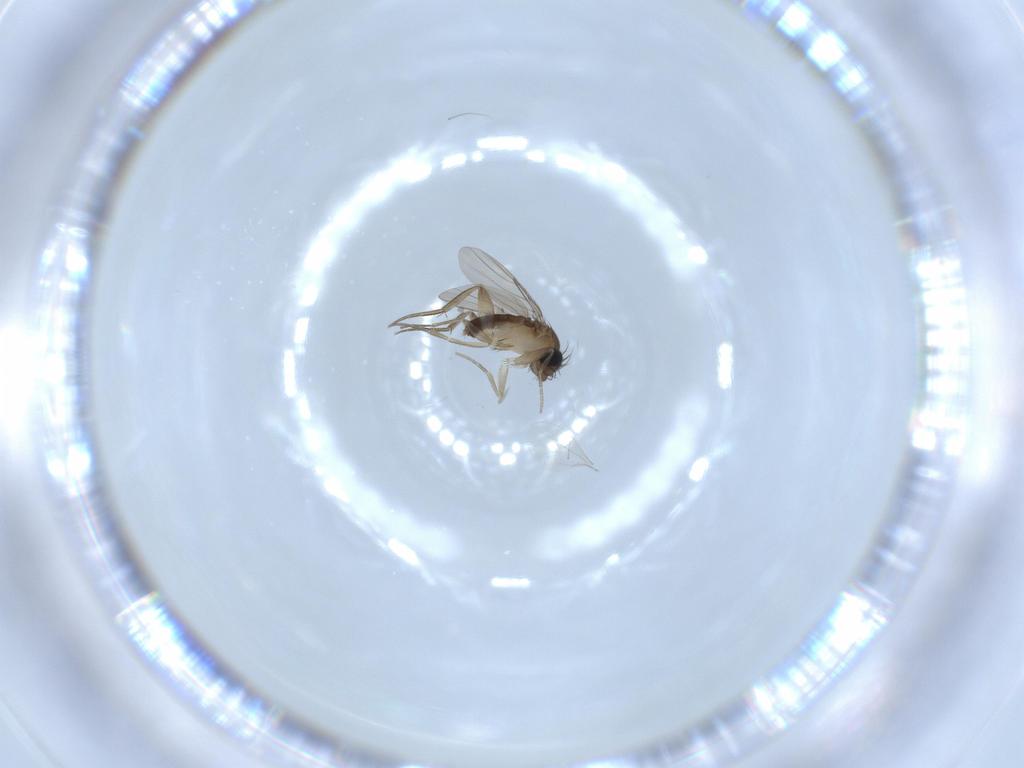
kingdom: Animalia
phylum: Arthropoda
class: Insecta
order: Diptera
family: Phoridae
